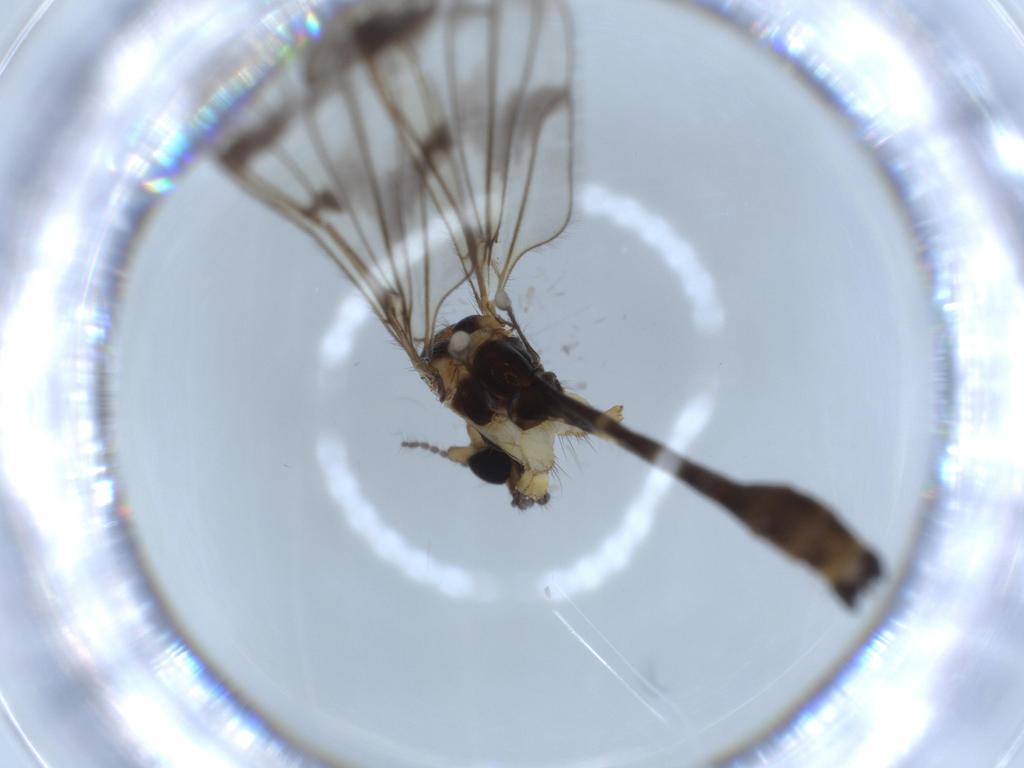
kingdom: Animalia
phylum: Arthropoda
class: Insecta
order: Diptera
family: Limoniidae
